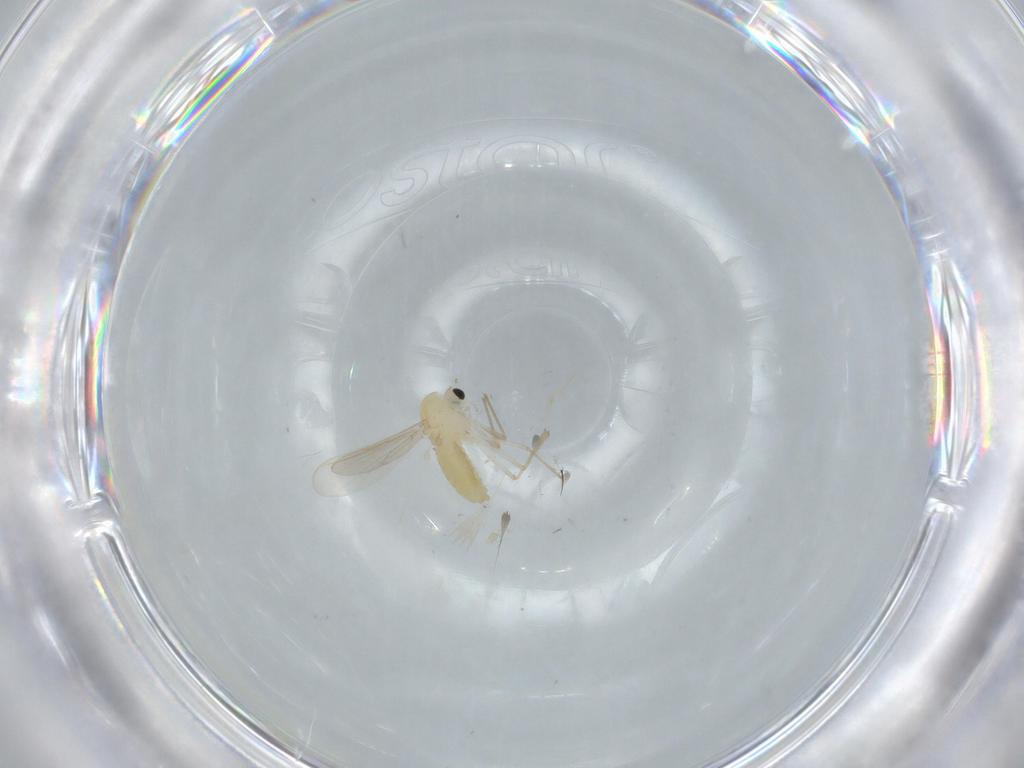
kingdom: Animalia
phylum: Arthropoda
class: Insecta
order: Diptera
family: Chironomidae
